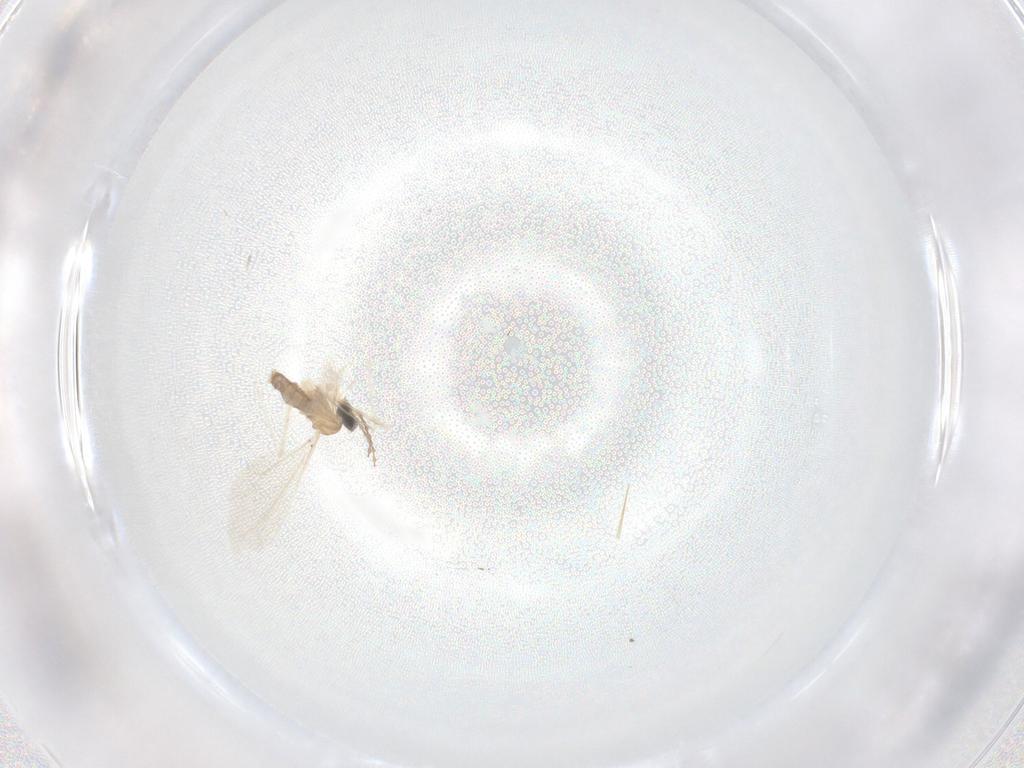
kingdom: Animalia
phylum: Arthropoda
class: Insecta
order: Diptera
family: Cecidomyiidae
